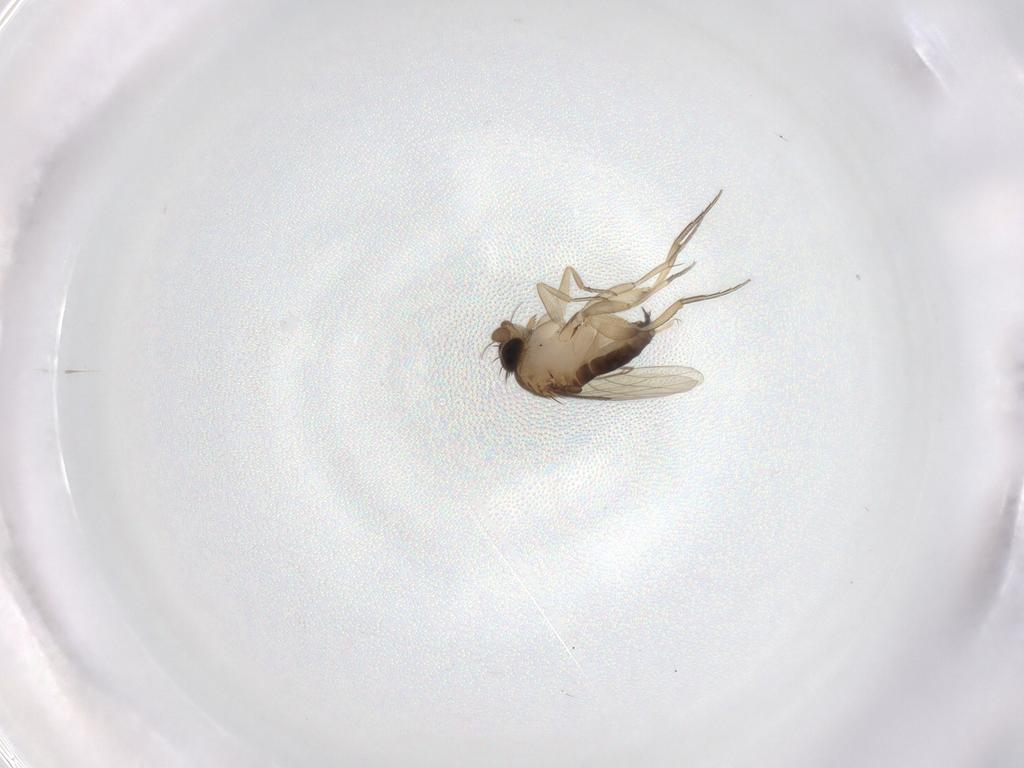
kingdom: Animalia
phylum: Arthropoda
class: Insecta
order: Diptera
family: Phoridae
